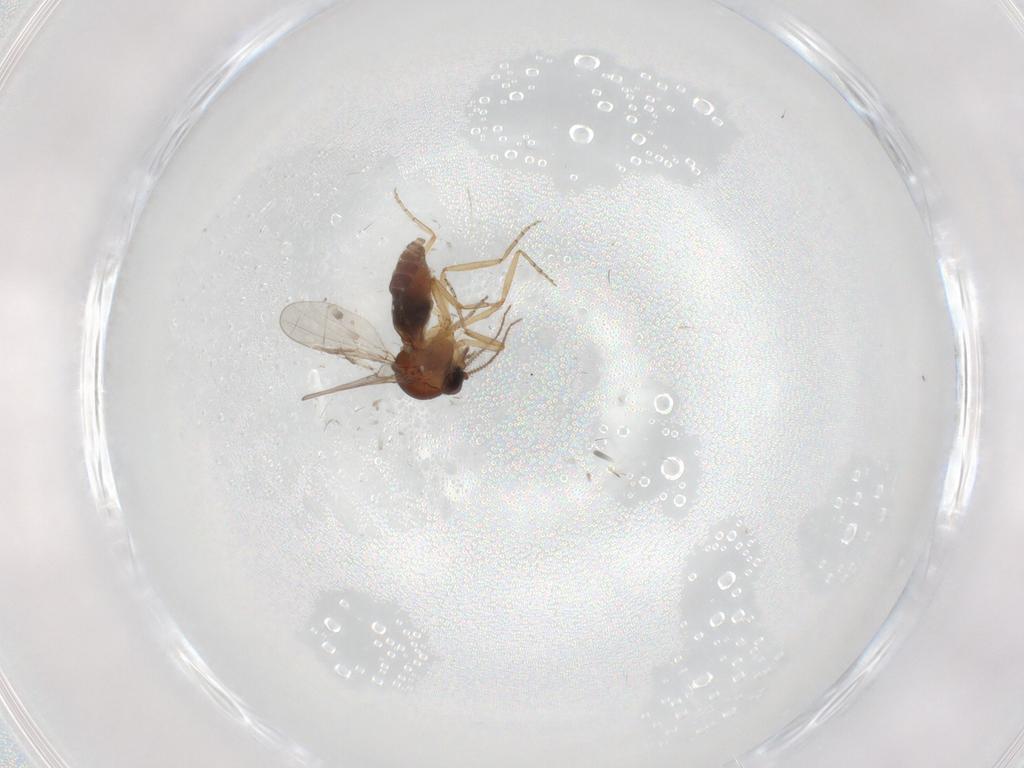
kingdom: Animalia
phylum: Arthropoda
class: Insecta
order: Diptera
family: Ceratopogonidae
